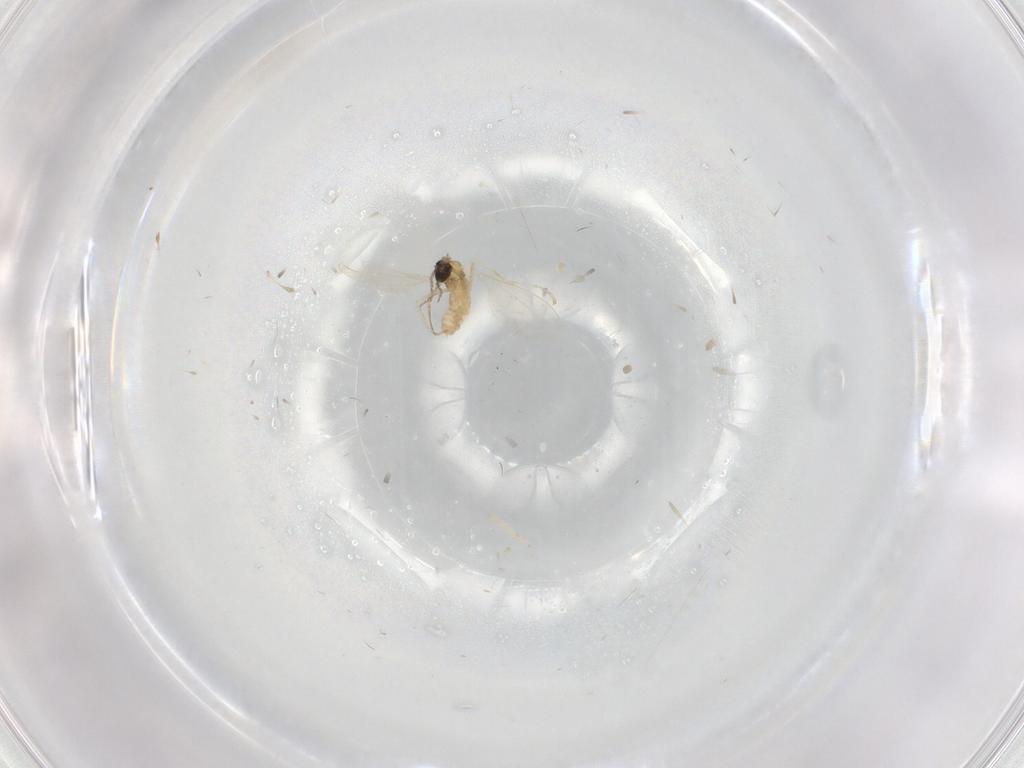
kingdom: Animalia
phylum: Arthropoda
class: Insecta
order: Diptera
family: Cecidomyiidae
